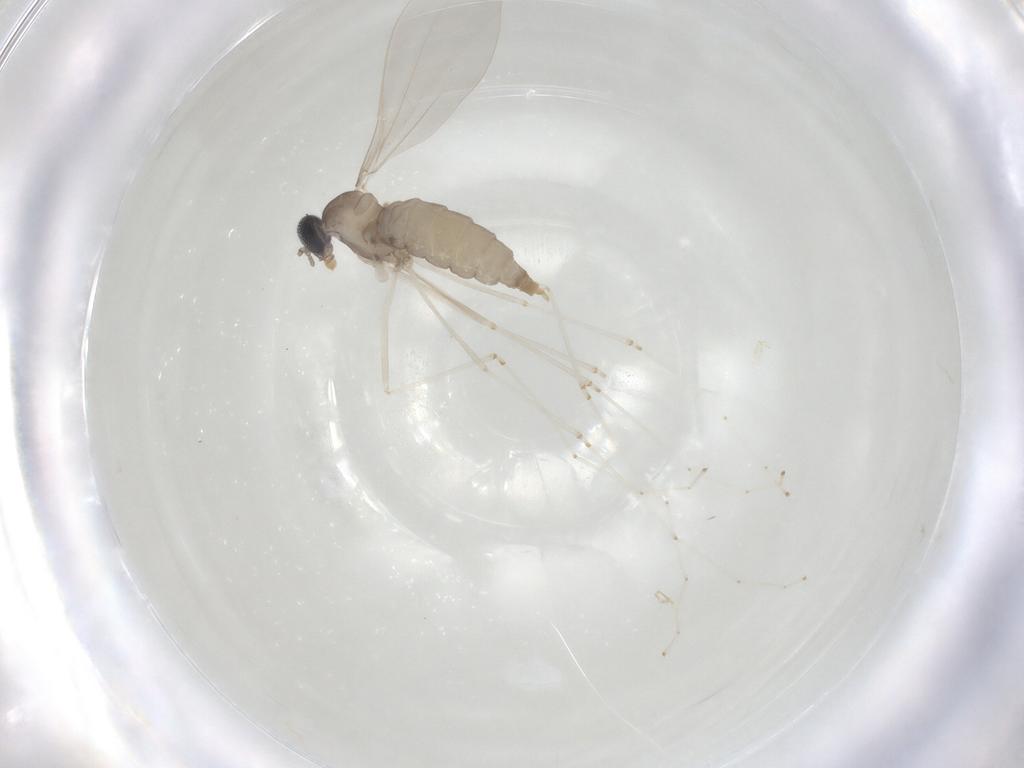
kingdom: Animalia
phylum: Arthropoda
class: Insecta
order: Diptera
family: Cecidomyiidae
